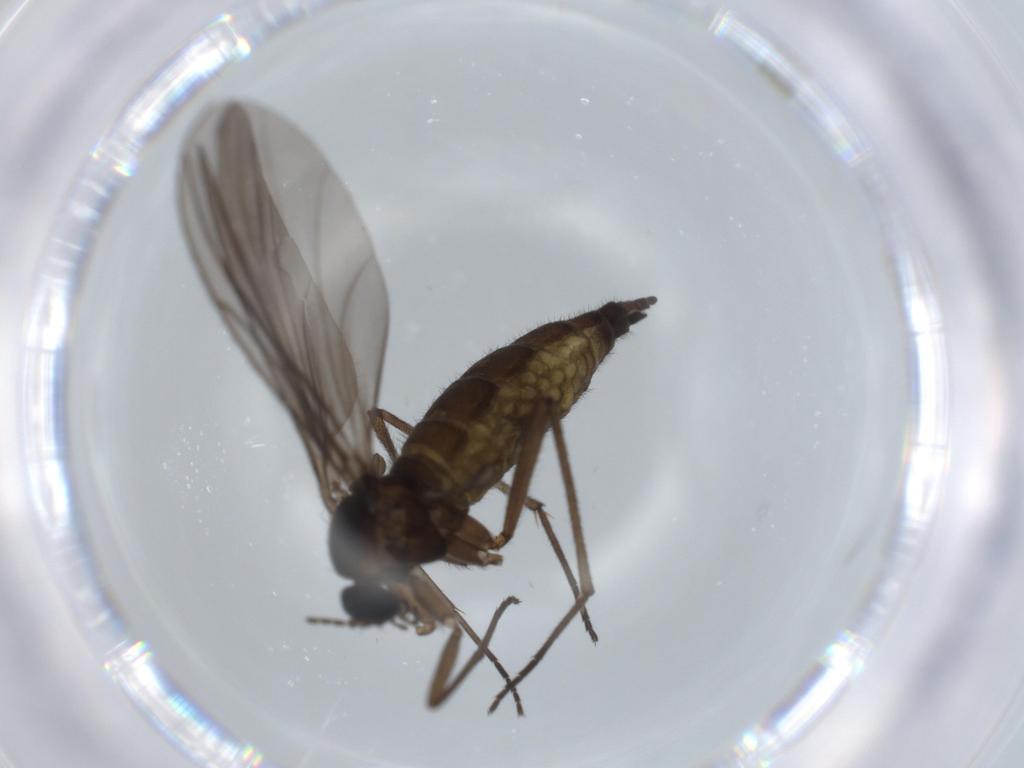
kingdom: Animalia
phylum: Arthropoda
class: Insecta
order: Diptera
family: Sciaridae
